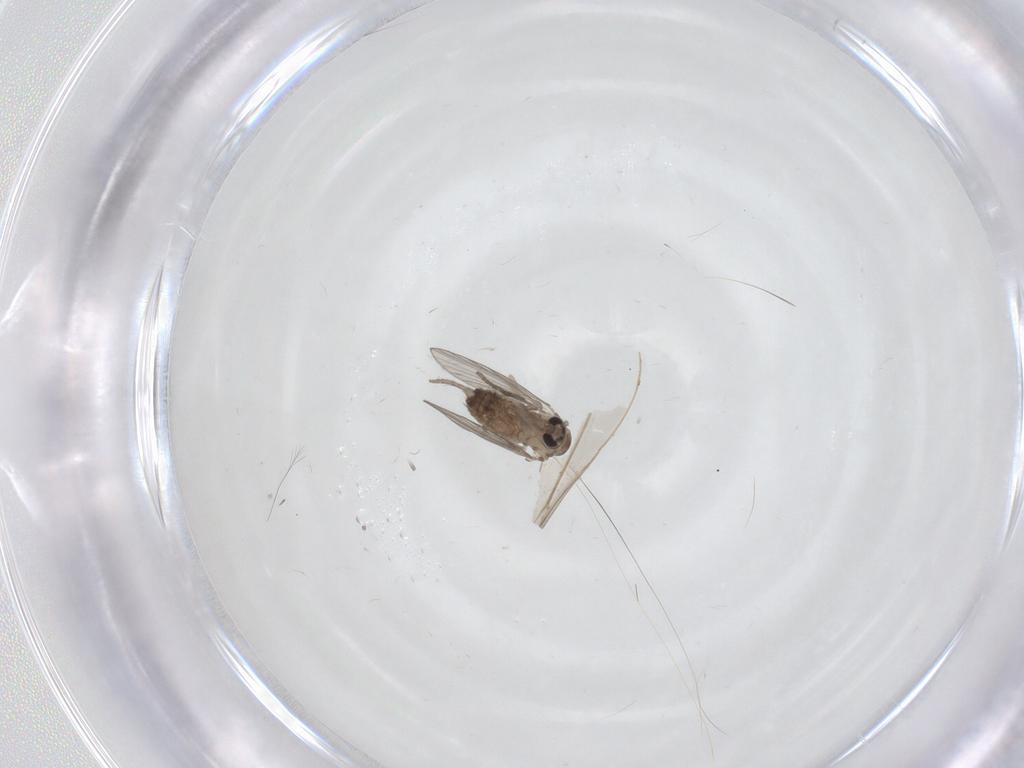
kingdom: Animalia
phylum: Arthropoda
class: Insecta
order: Diptera
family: Psychodidae
